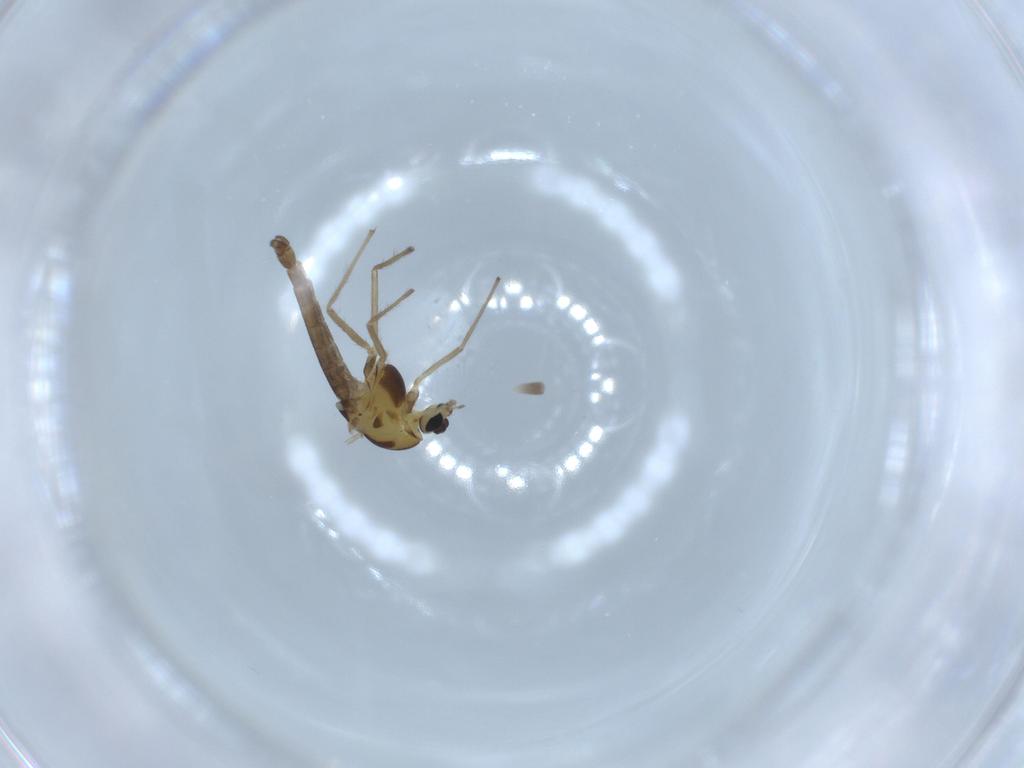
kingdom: Animalia
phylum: Arthropoda
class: Insecta
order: Diptera
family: Chironomidae
